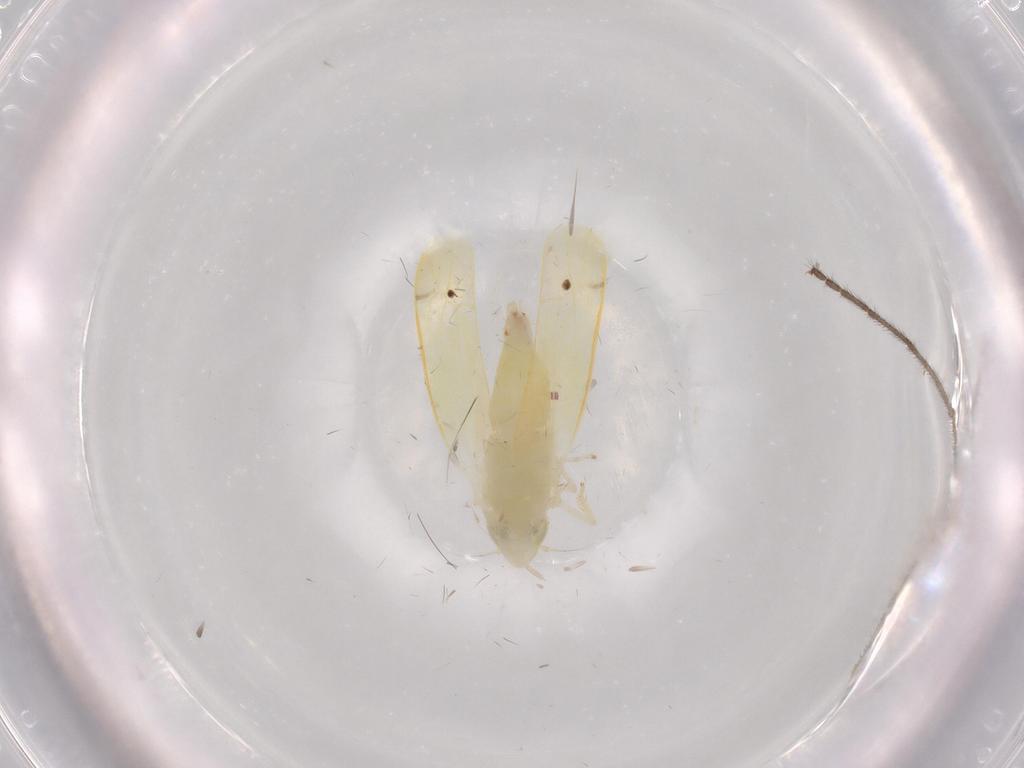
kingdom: Animalia
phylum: Arthropoda
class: Insecta
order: Hemiptera
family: Cicadellidae
